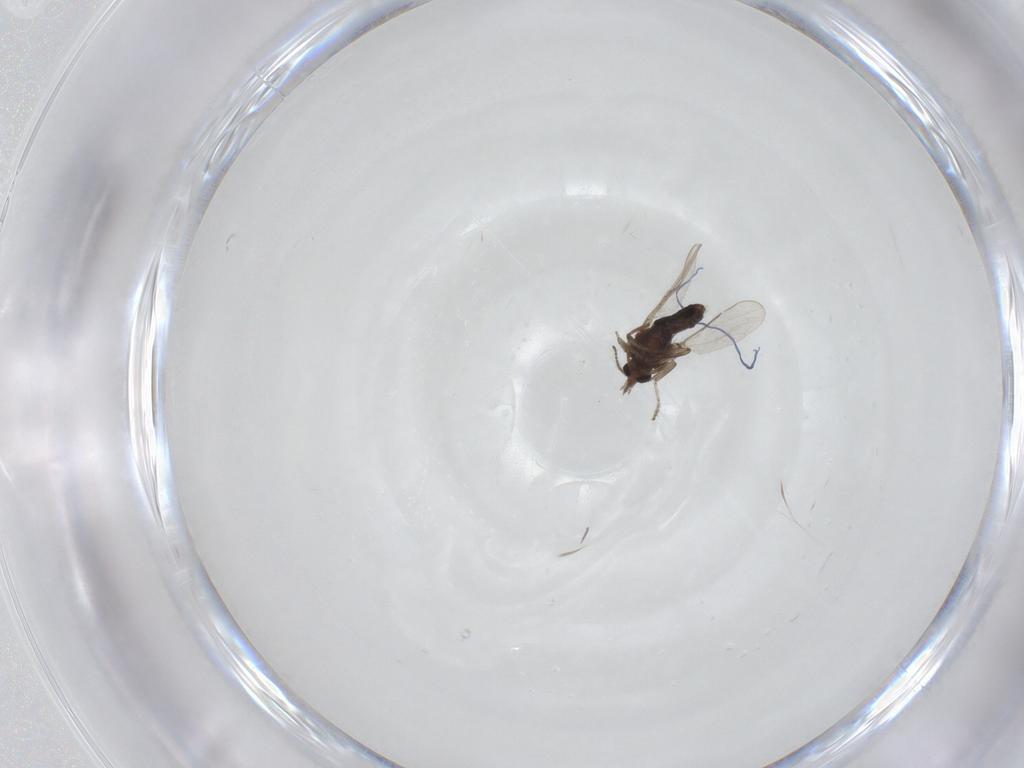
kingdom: Animalia
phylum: Arthropoda
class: Insecta
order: Diptera
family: Ceratopogonidae
